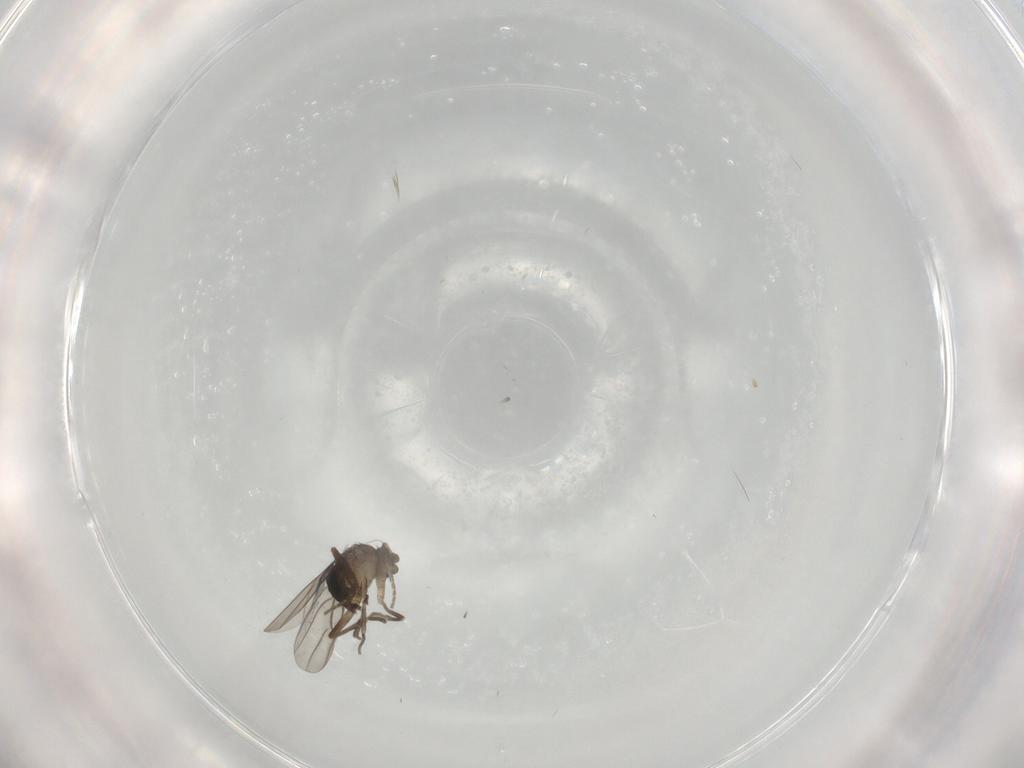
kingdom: Animalia
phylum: Arthropoda
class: Insecta
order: Diptera
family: Phoridae
